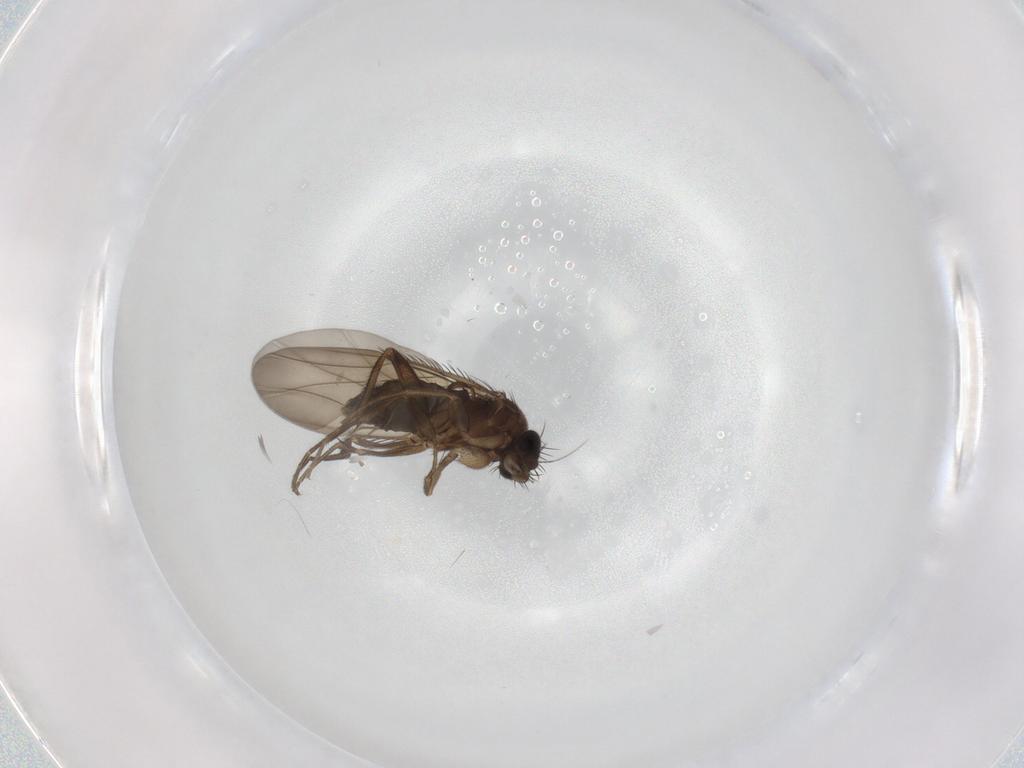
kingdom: Animalia
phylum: Arthropoda
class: Insecta
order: Diptera
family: Phoridae
